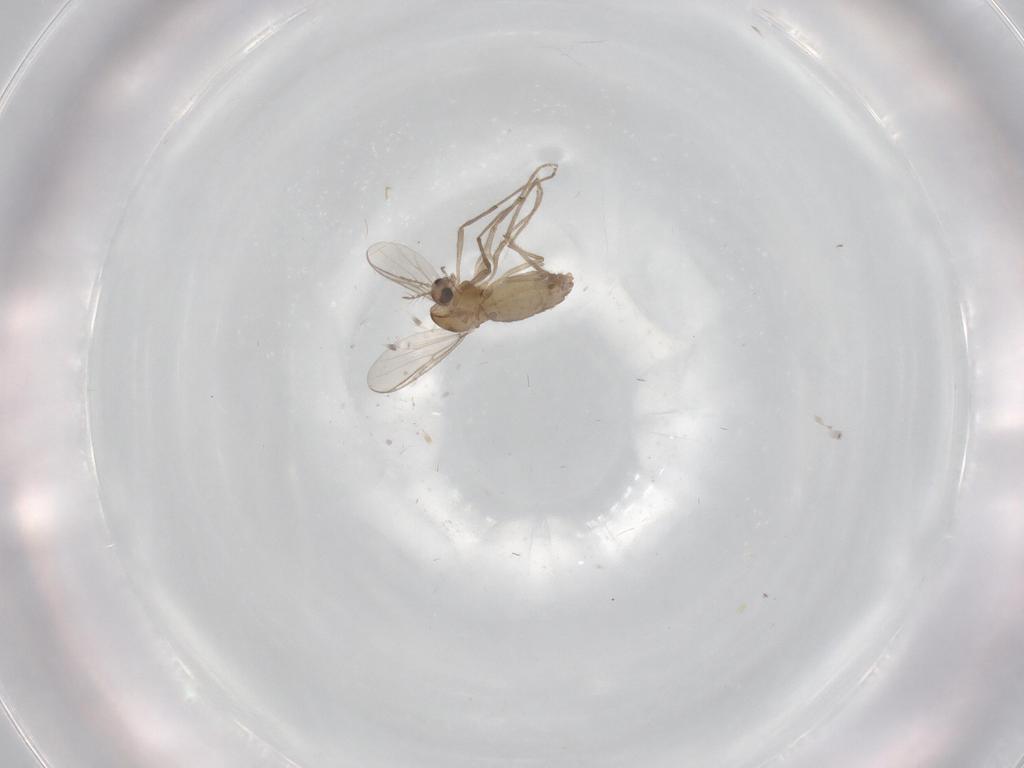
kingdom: Animalia
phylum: Arthropoda
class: Insecta
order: Diptera
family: Chironomidae
